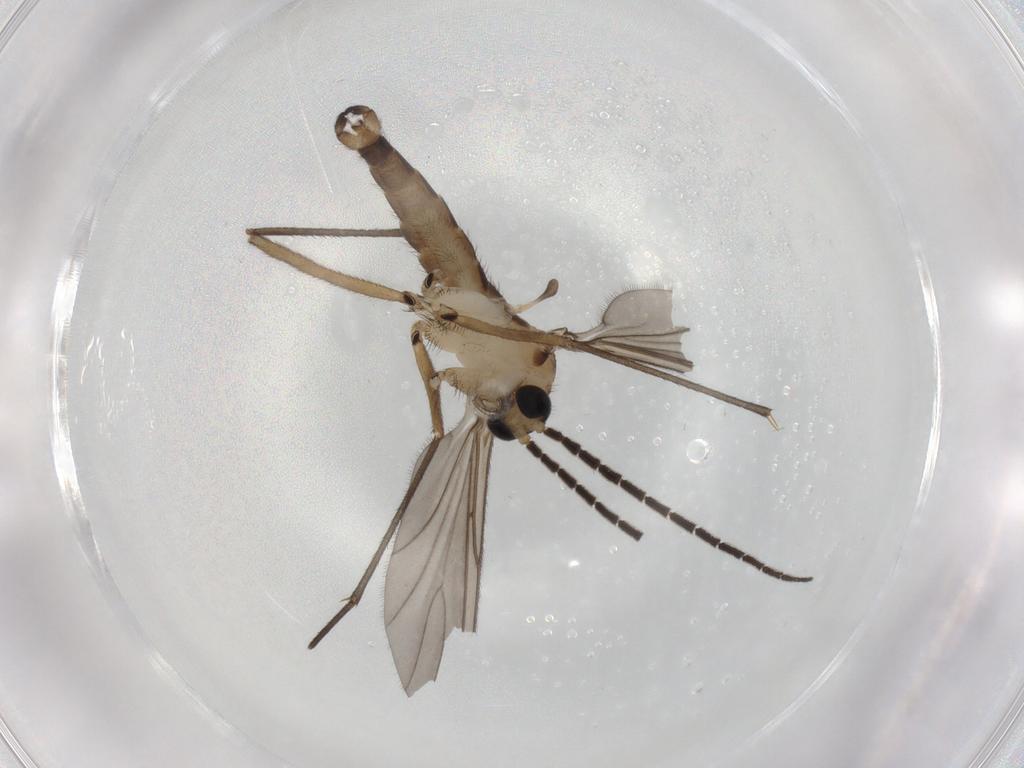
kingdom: Animalia
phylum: Arthropoda
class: Insecta
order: Diptera
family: Sciaridae
